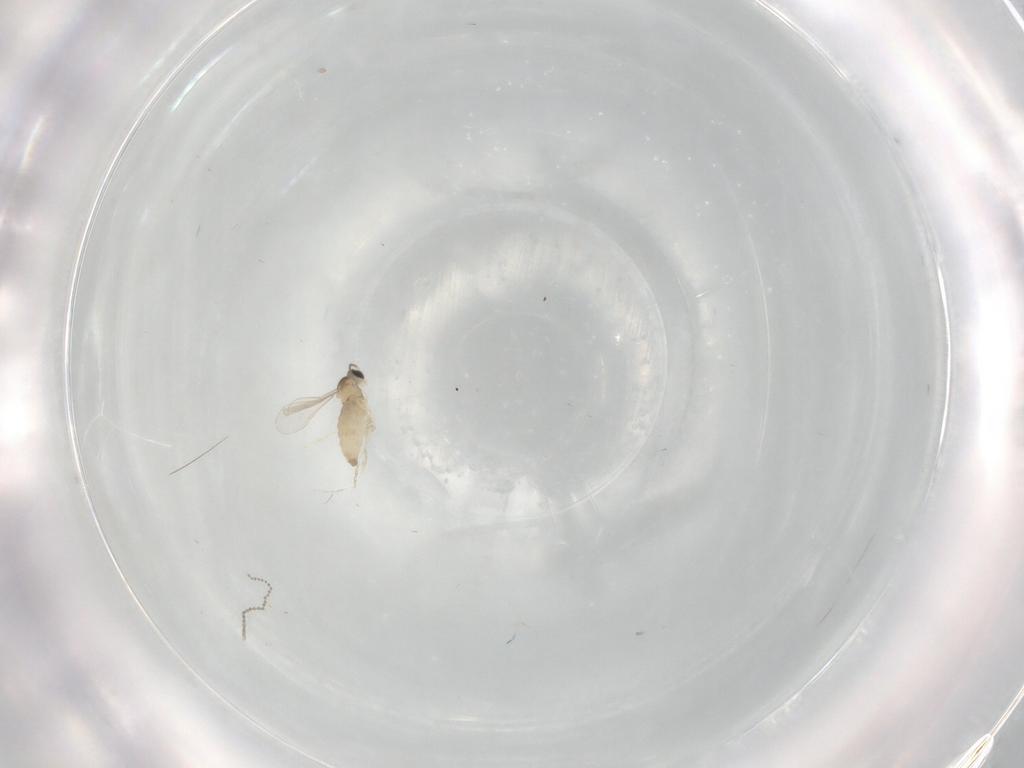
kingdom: Animalia
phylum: Arthropoda
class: Insecta
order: Diptera
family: Cecidomyiidae
